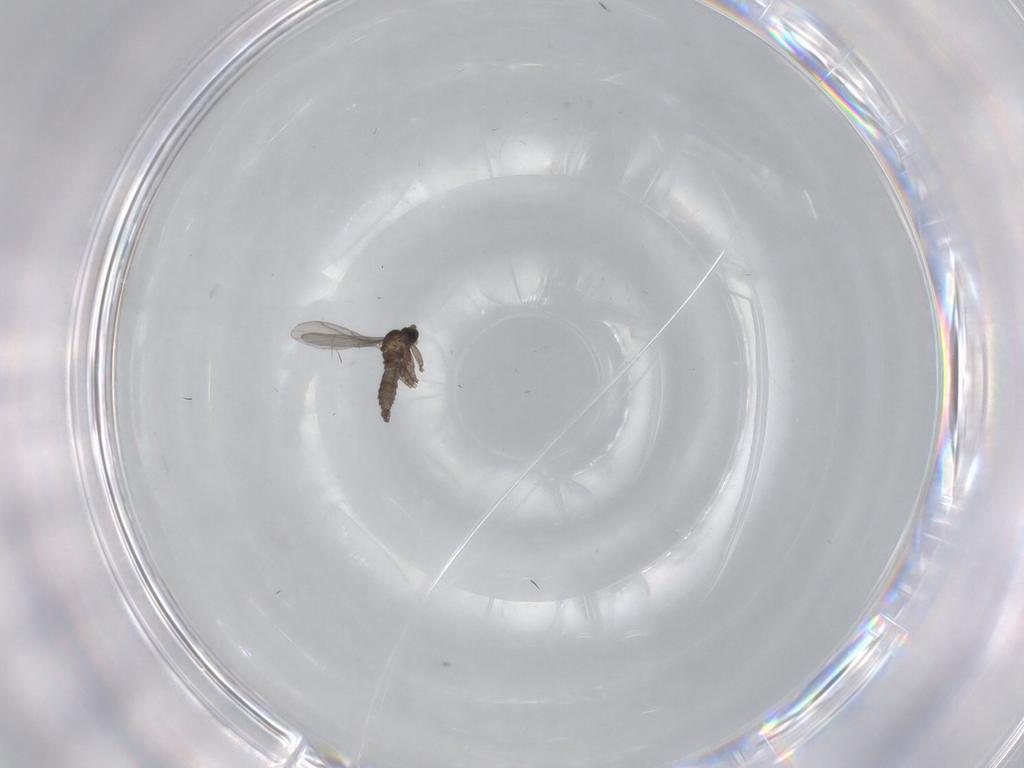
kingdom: Animalia
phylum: Arthropoda
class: Insecta
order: Diptera
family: Sciaridae
